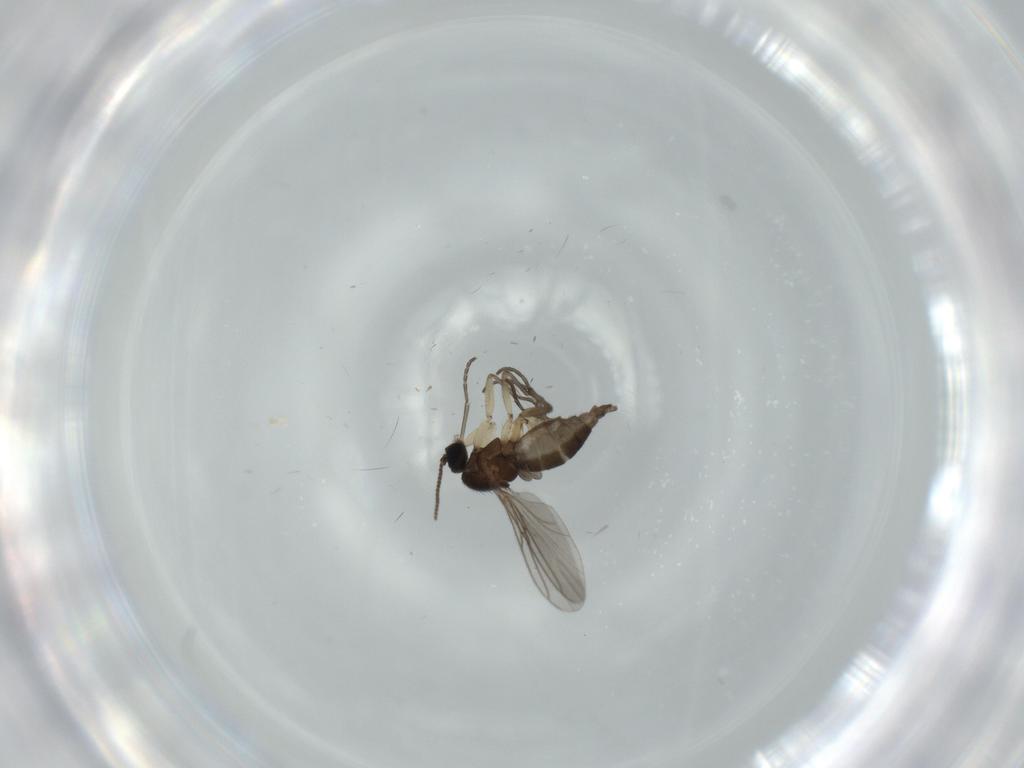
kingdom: Animalia
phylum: Arthropoda
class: Insecta
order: Diptera
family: Sciaridae
